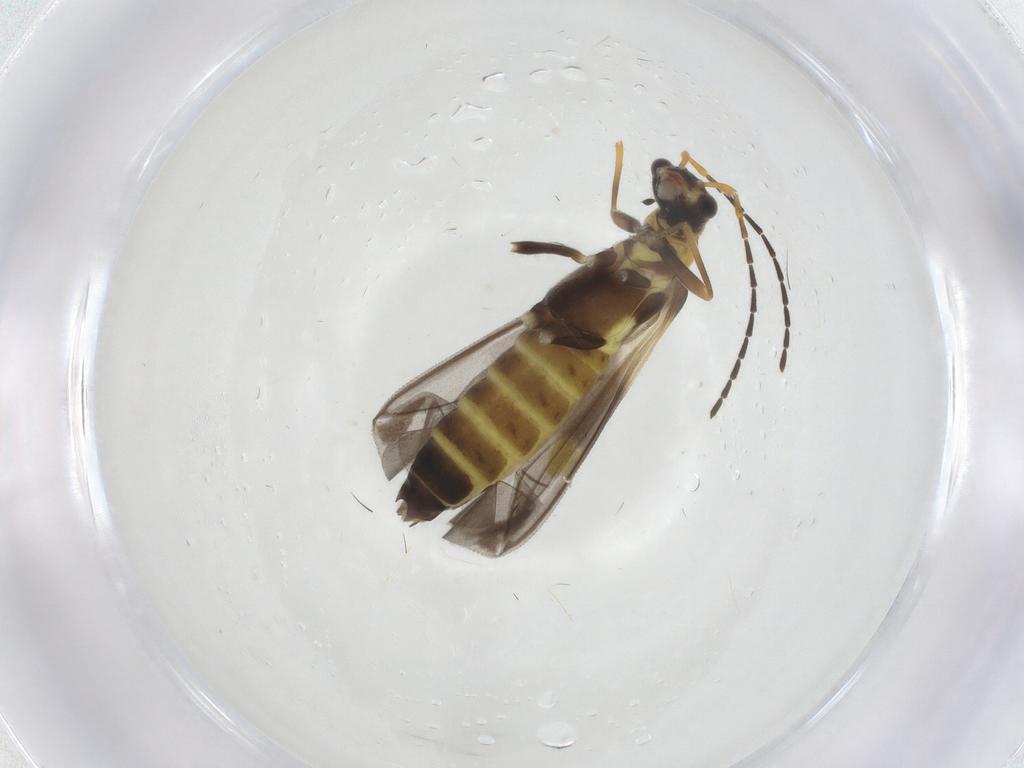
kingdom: Animalia
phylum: Arthropoda
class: Insecta
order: Coleoptera
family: Cantharidae
